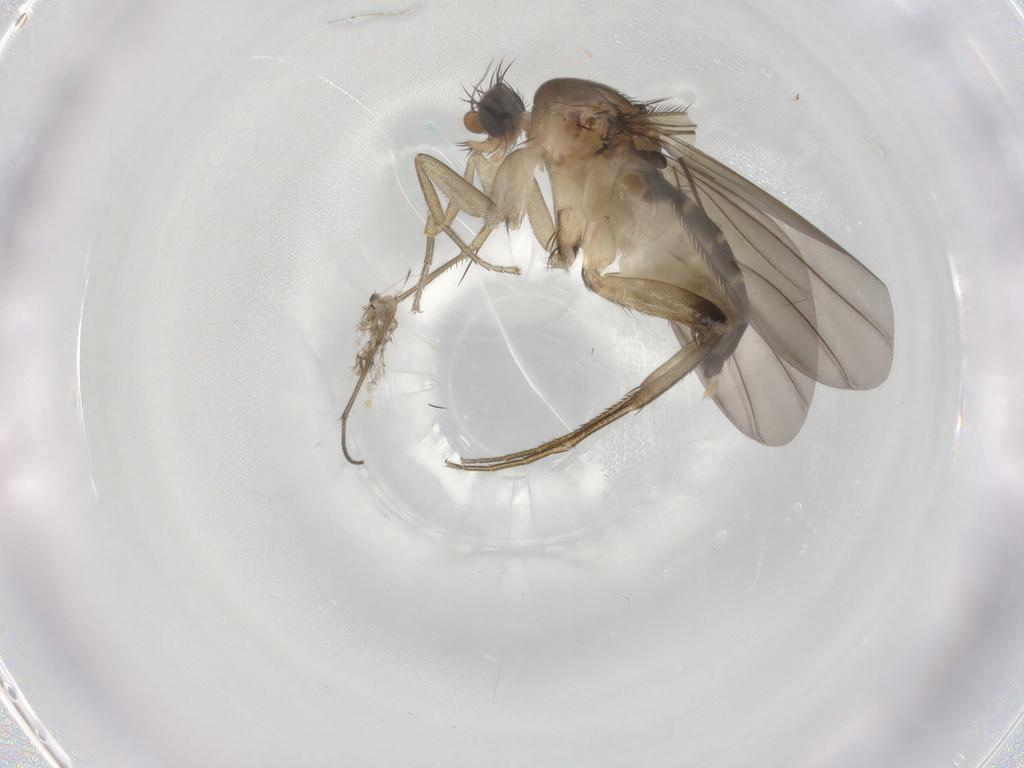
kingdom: Animalia
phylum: Arthropoda
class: Insecta
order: Diptera
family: Phoridae
